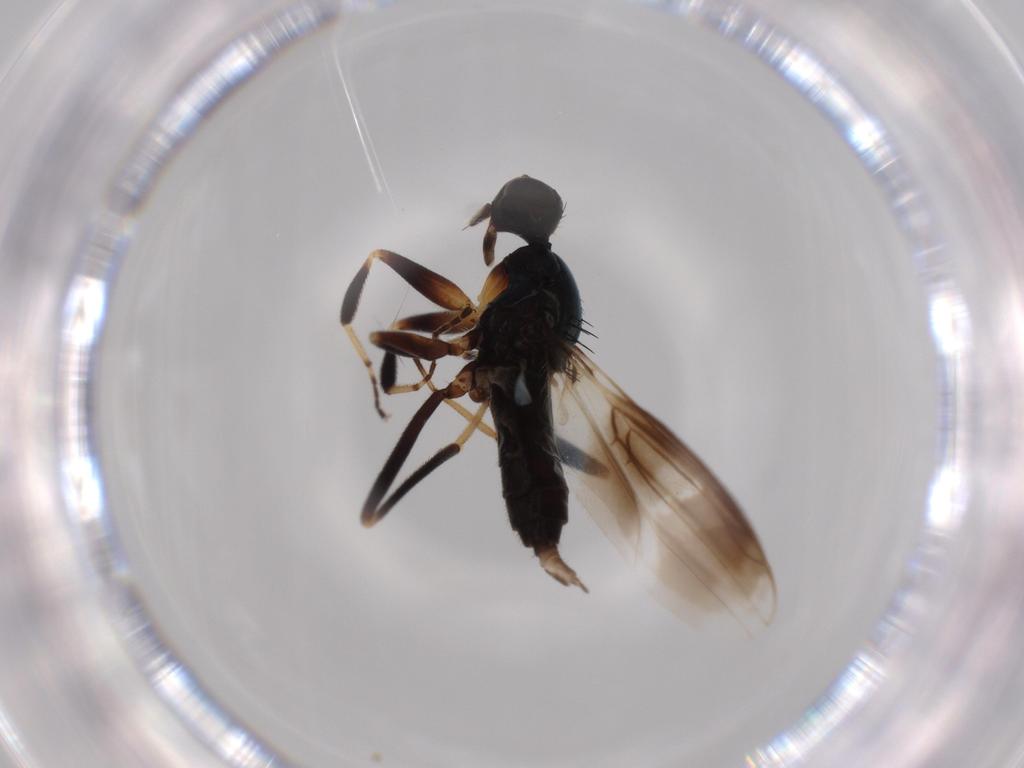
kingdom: Animalia
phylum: Arthropoda
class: Insecta
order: Diptera
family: Hybotidae
